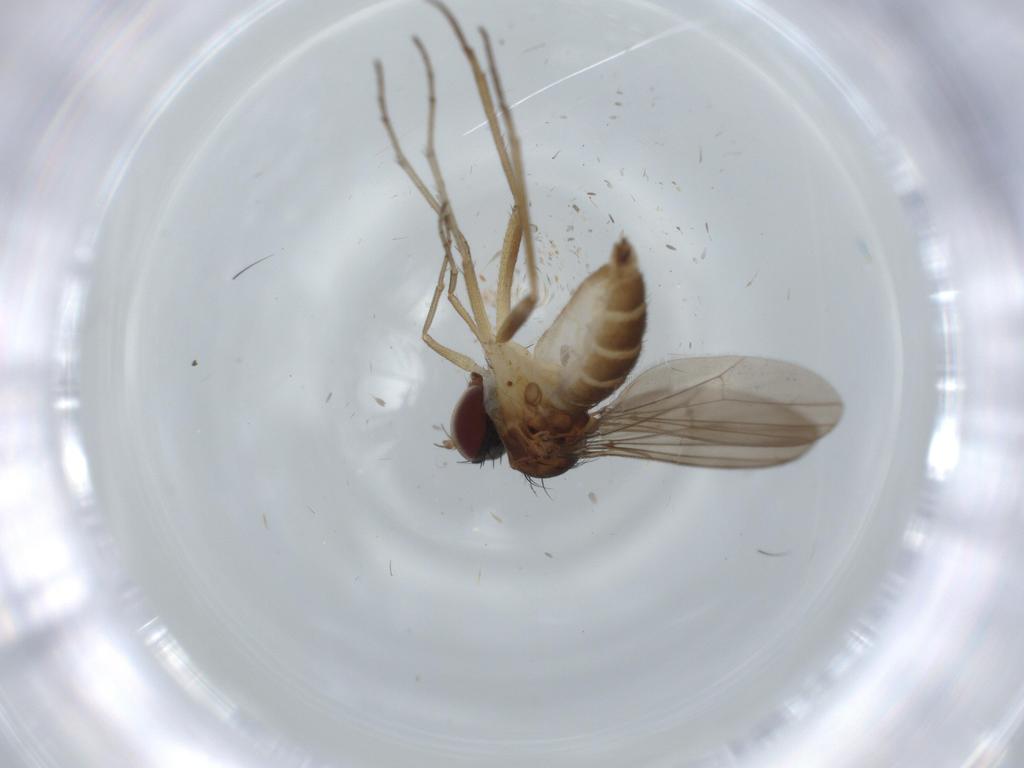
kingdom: Animalia
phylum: Arthropoda
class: Insecta
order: Diptera
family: Dolichopodidae
